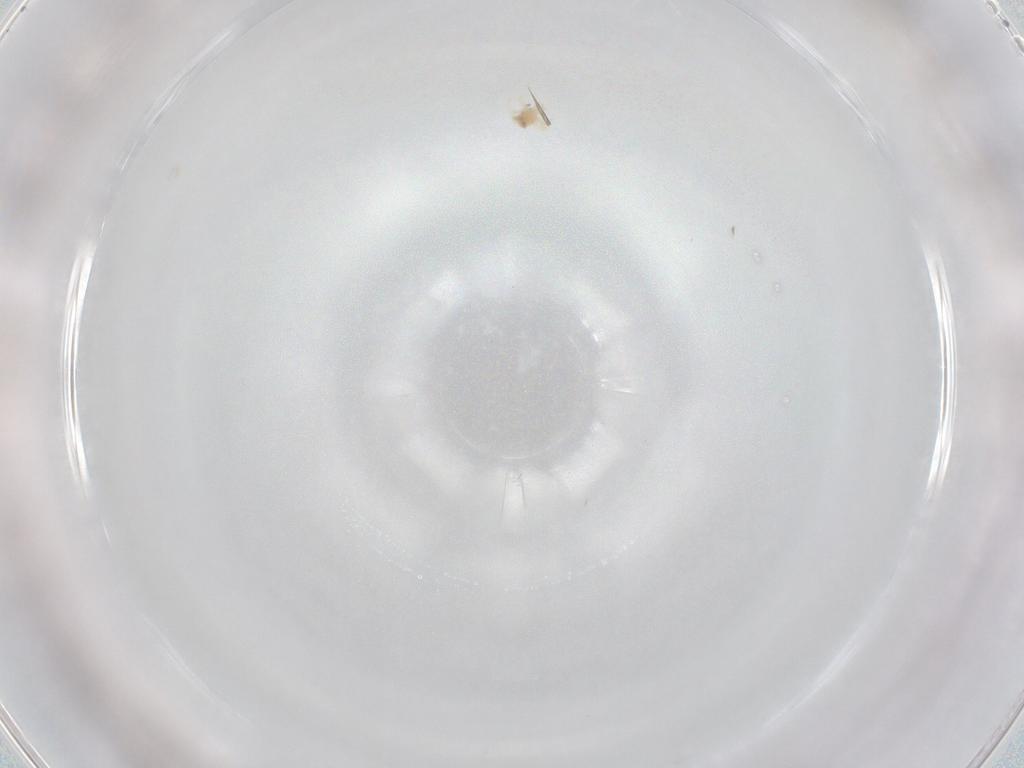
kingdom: Animalia
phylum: Arthropoda
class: Arachnida
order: Trombidiformes
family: Anystidae
